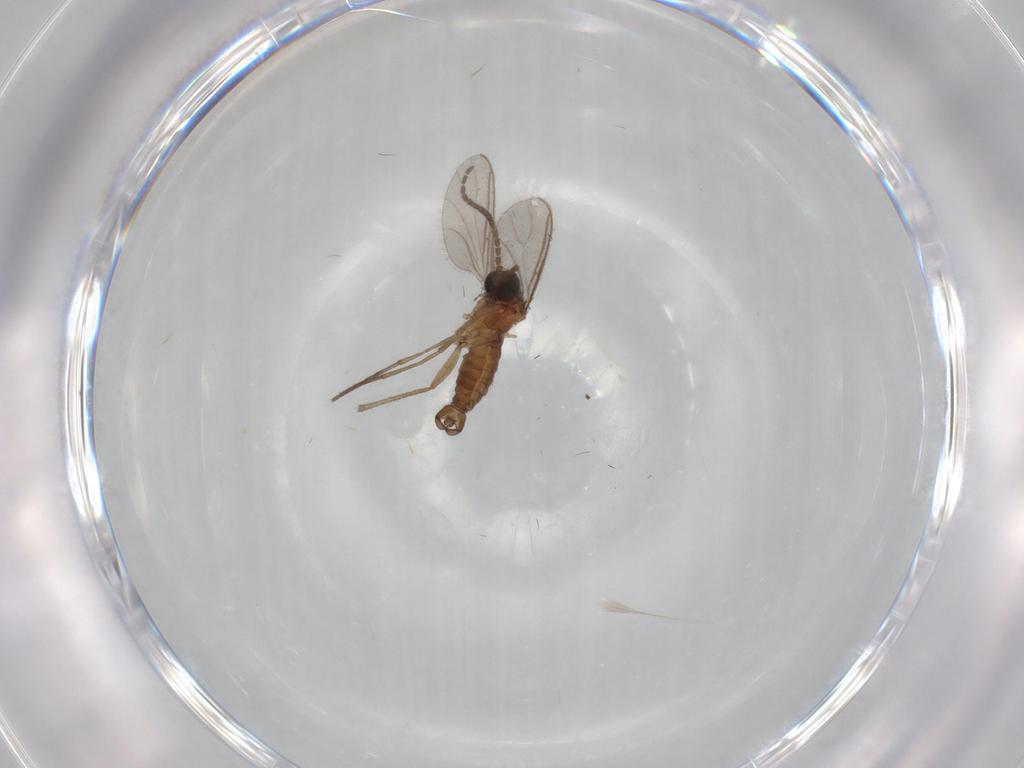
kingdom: Animalia
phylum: Arthropoda
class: Insecta
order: Diptera
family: Sciaridae
